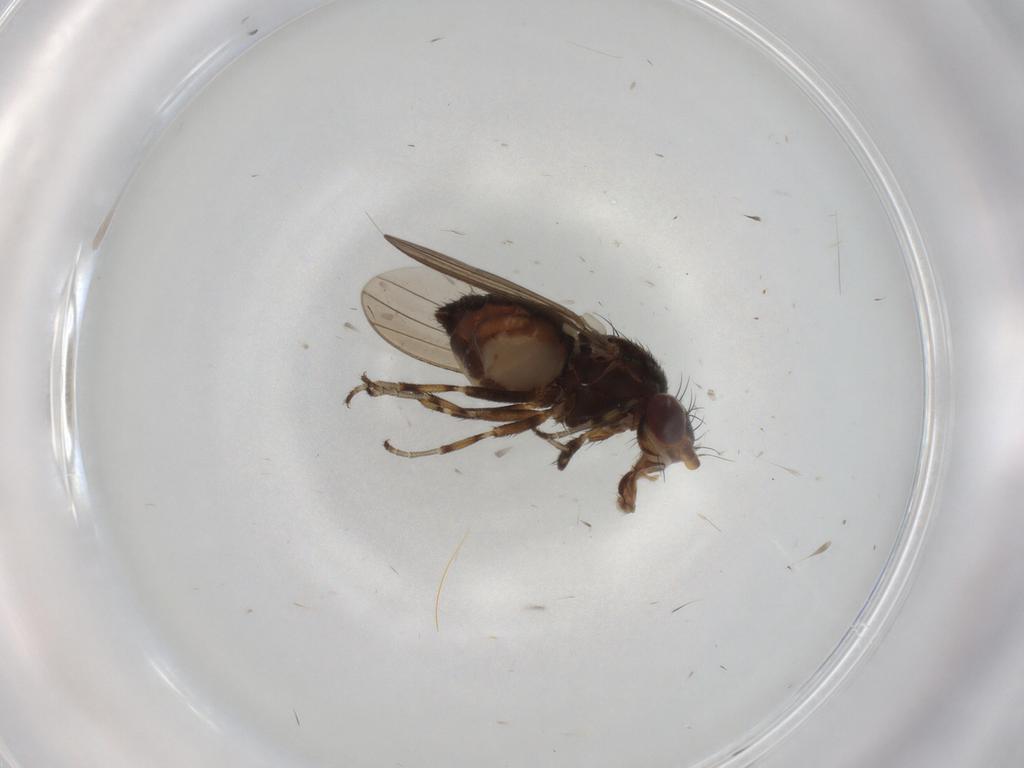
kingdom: Animalia
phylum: Arthropoda
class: Insecta
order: Diptera
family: Heleomyzidae
